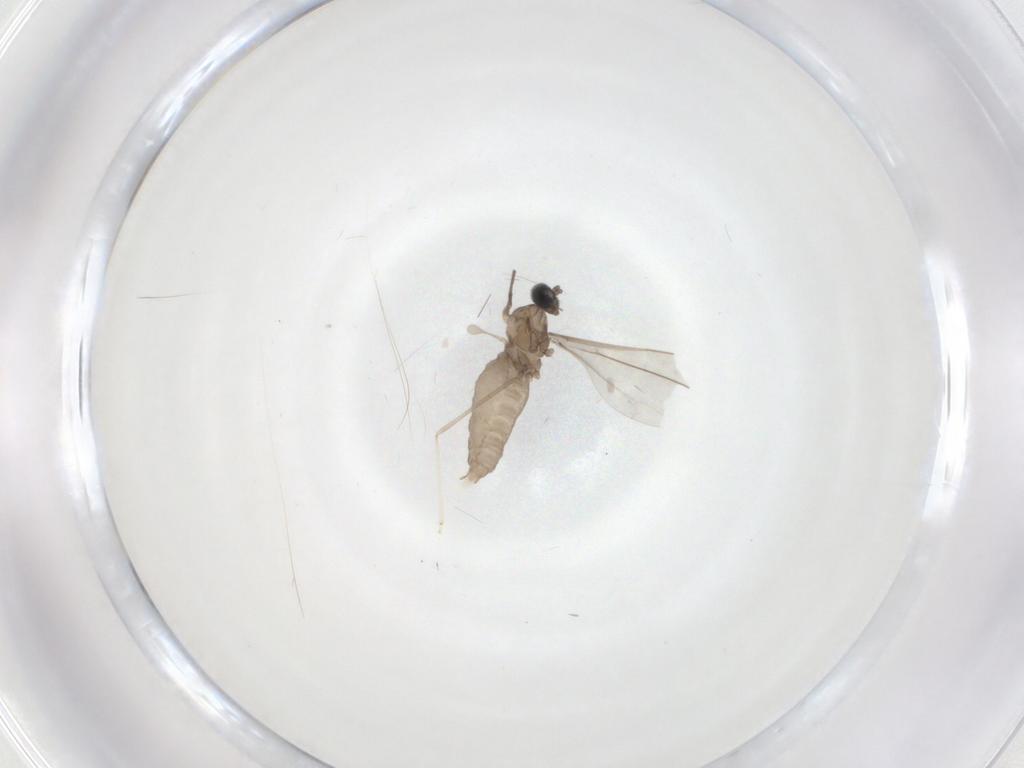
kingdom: Animalia
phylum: Arthropoda
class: Insecta
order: Diptera
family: Cecidomyiidae
